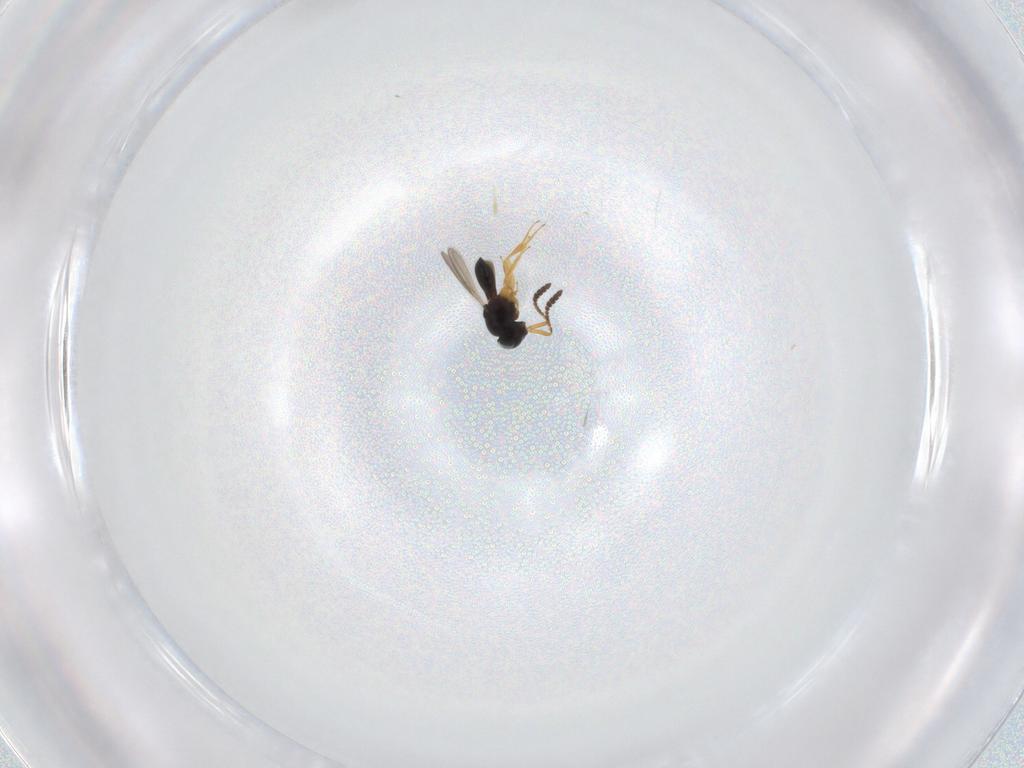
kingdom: Animalia
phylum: Arthropoda
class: Insecta
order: Hymenoptera
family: Scelionidae
